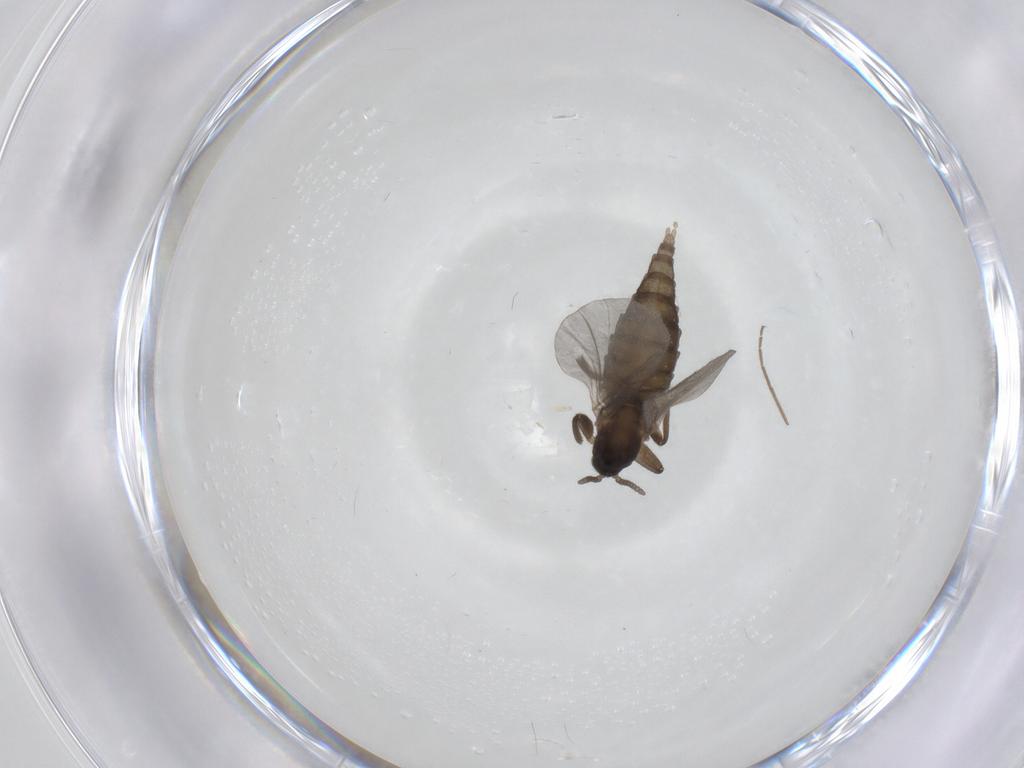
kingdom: Animalia
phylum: Arthropoda
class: Insecta
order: Diptera
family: Cecidomyiidae
